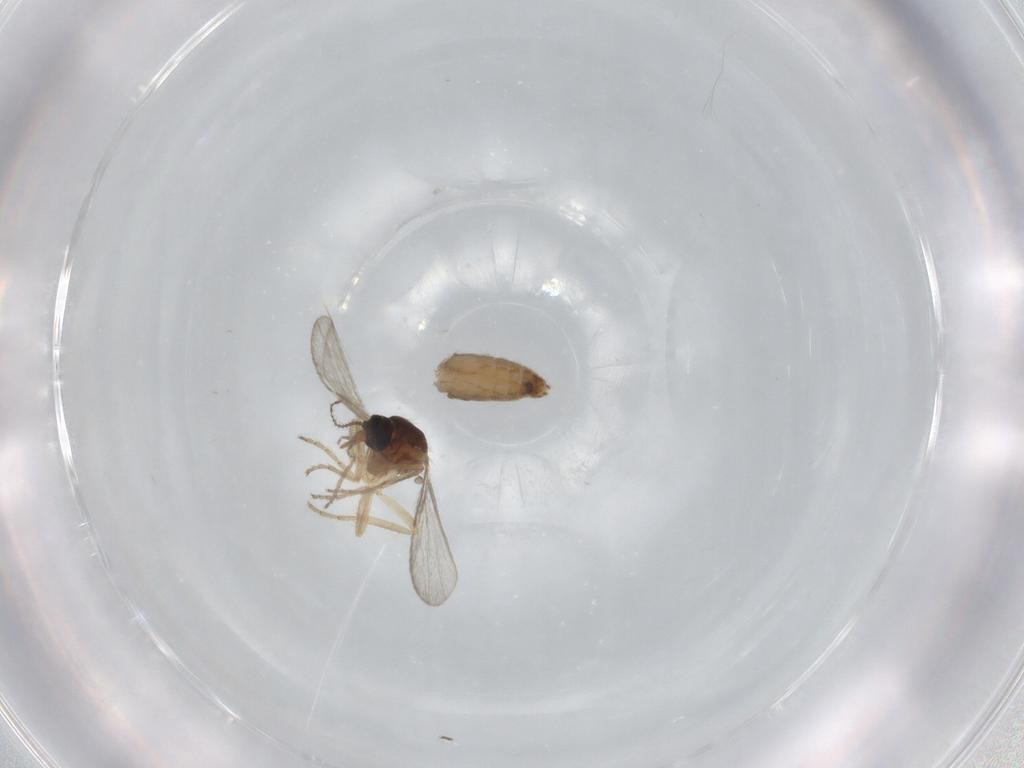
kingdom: Animalia
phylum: Arthropoda
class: Insecta
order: Diptera
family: Ceratopogonidae
